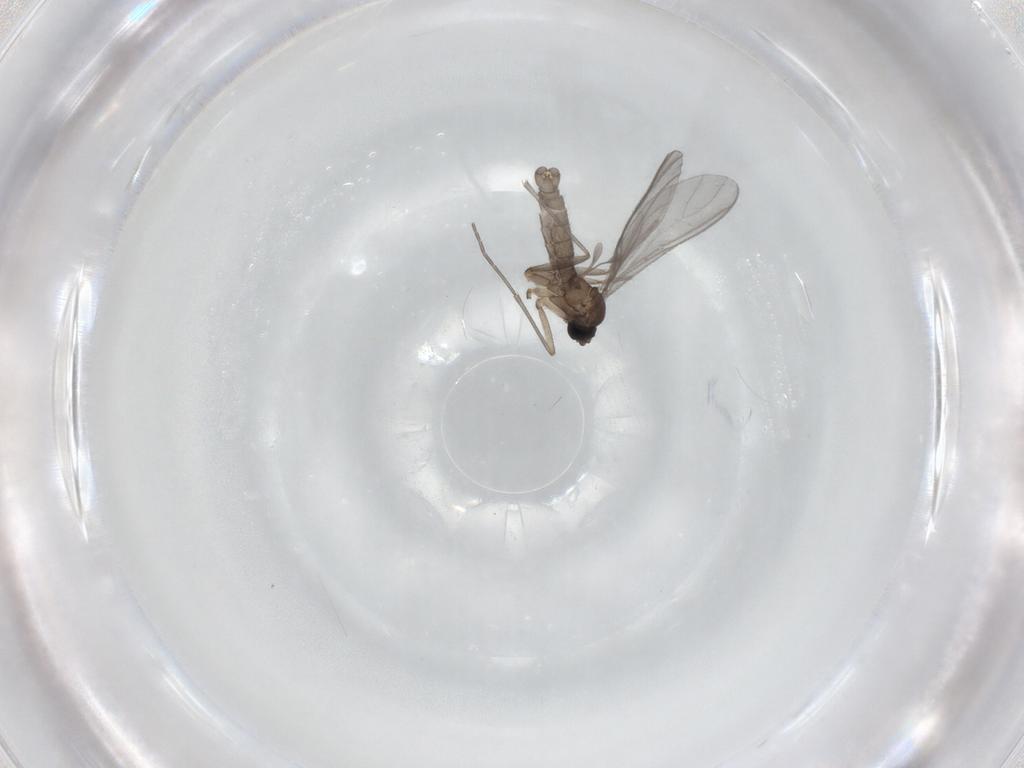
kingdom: Animalia
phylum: Arthropoda
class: Insecta
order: Diptera
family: Sciaridae
